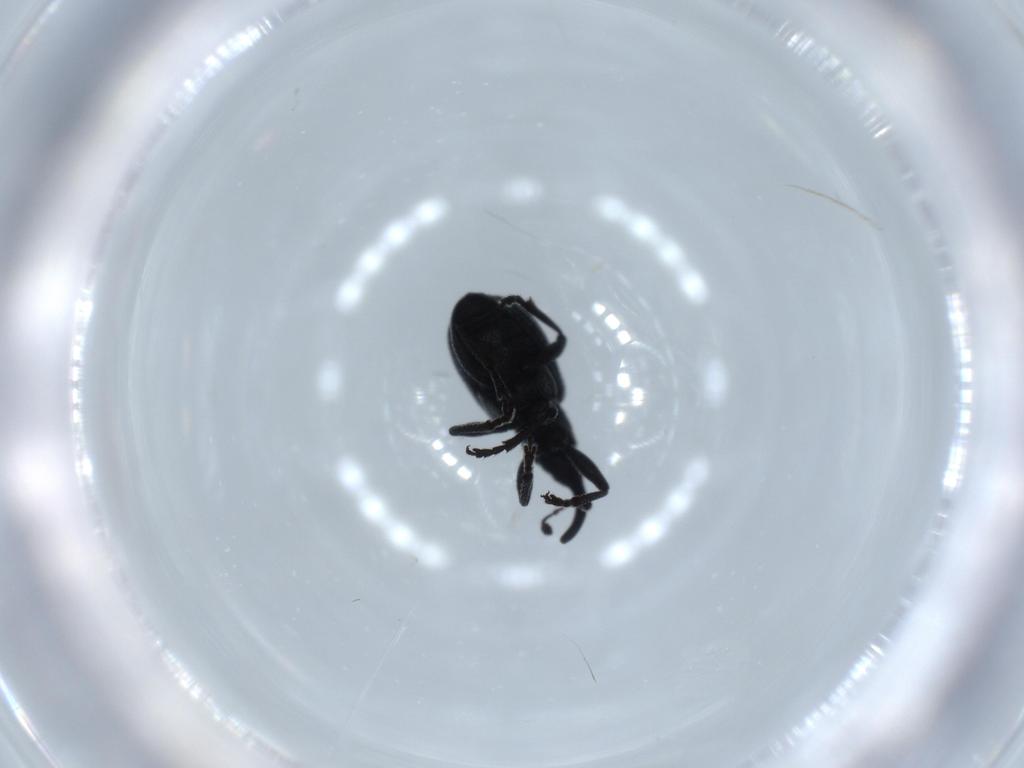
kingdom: Animalia
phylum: Arthropoda
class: Insecta
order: Coleoptera
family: Brentidae
